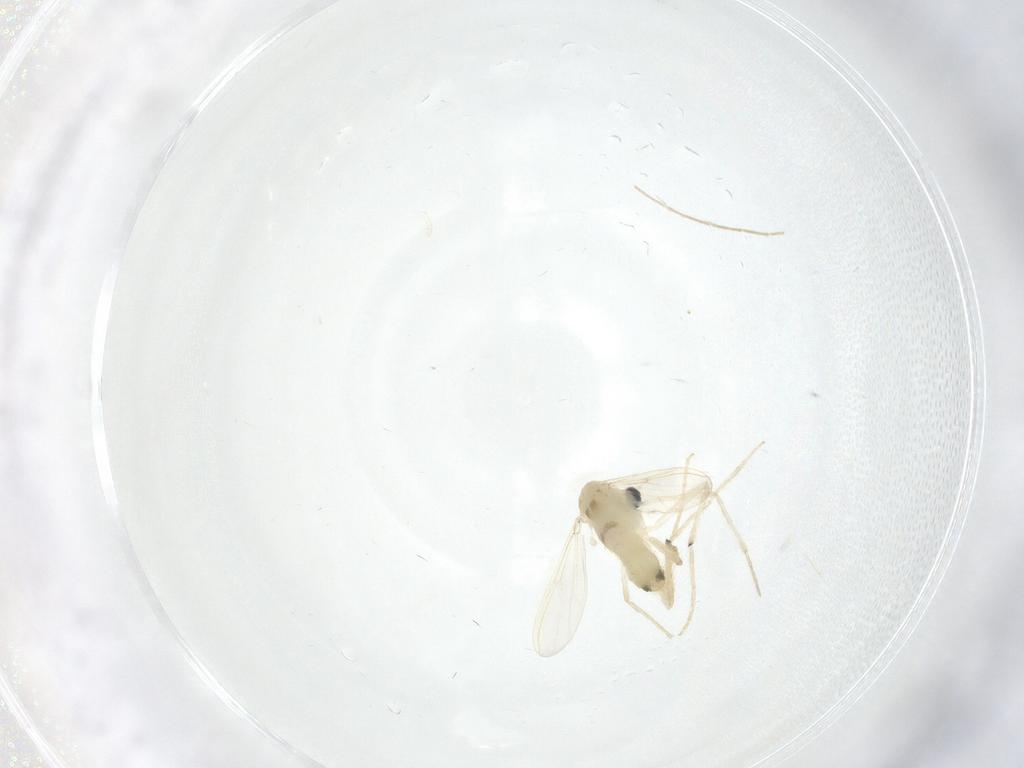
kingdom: Animalia
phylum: Arthropoda
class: Insecta
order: Diptera
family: Chironomidae
